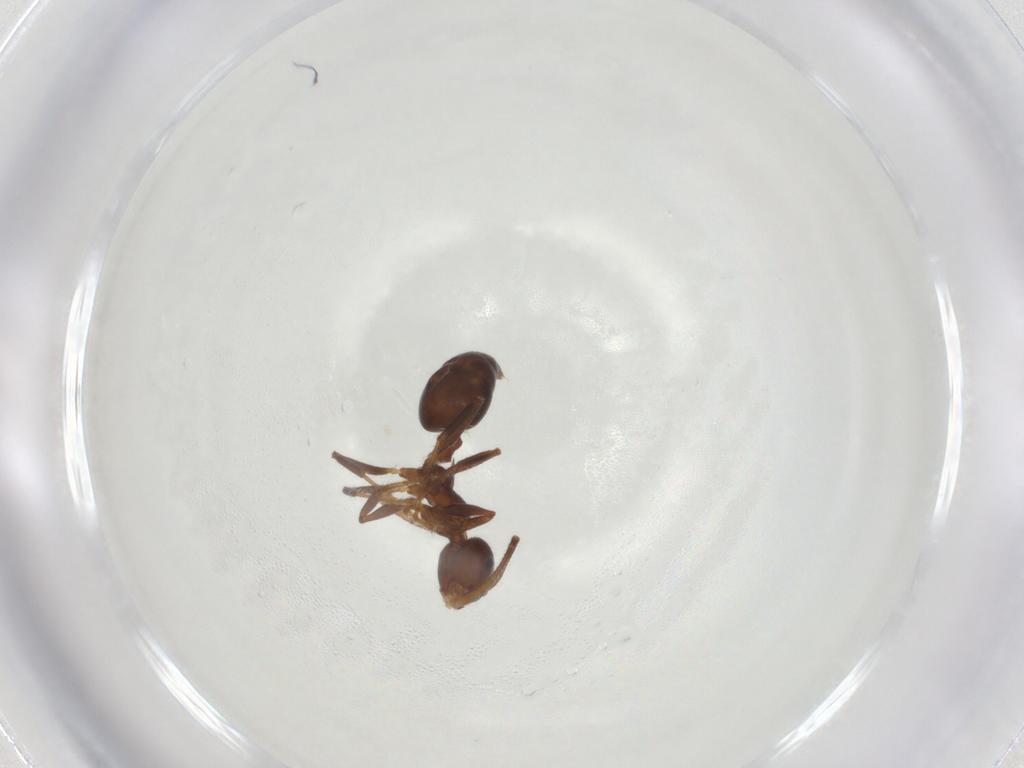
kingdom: Animalia
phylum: Arthropoda
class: Insecta
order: Hymenoptera
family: Formicidae
